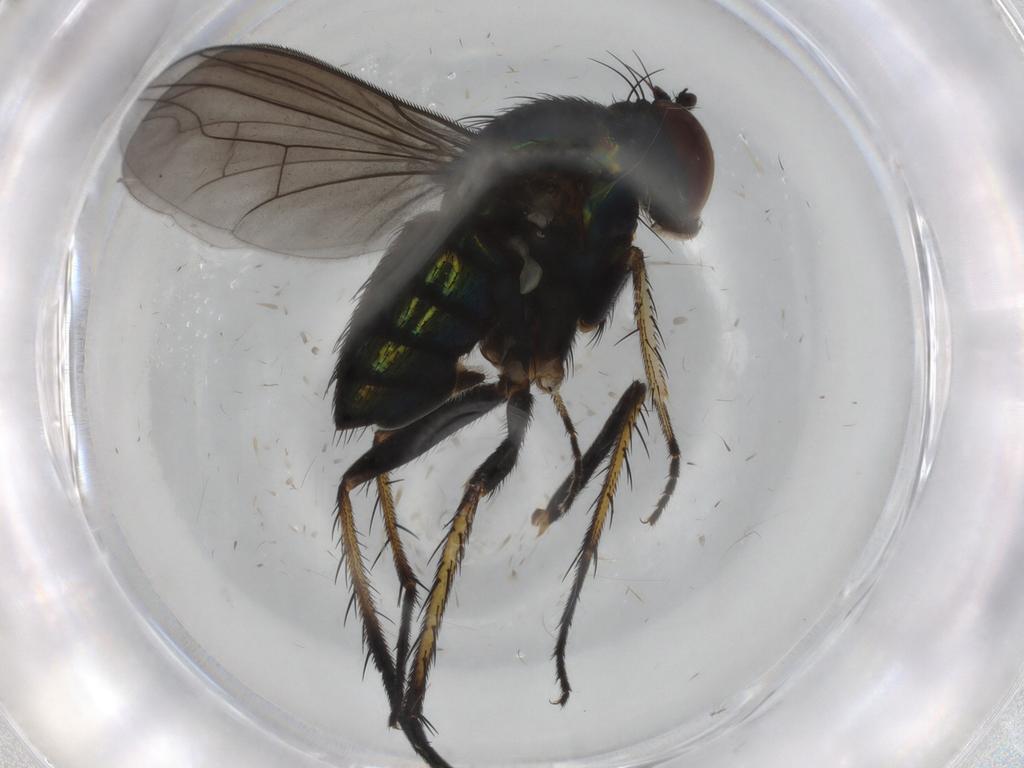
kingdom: Animalia
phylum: Arthropoda
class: Insecta
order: Diptera
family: Dolichopodidae
